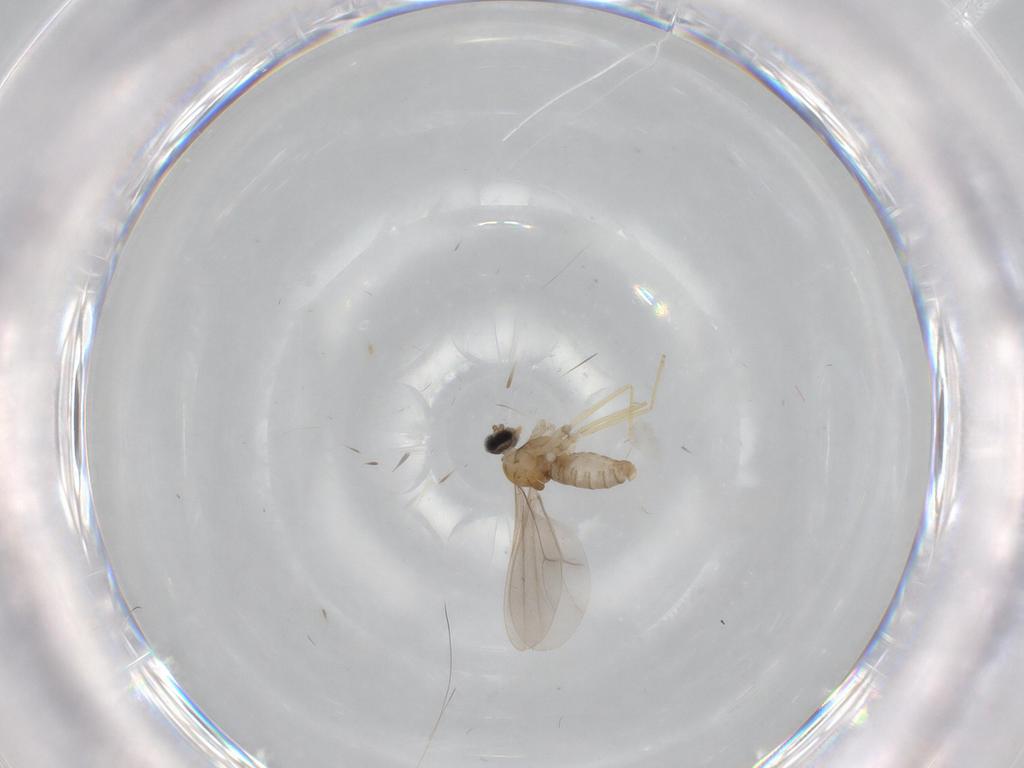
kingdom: Animalia
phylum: Arthropoda
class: Insecta
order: Diptera
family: Cecidomyiidae
